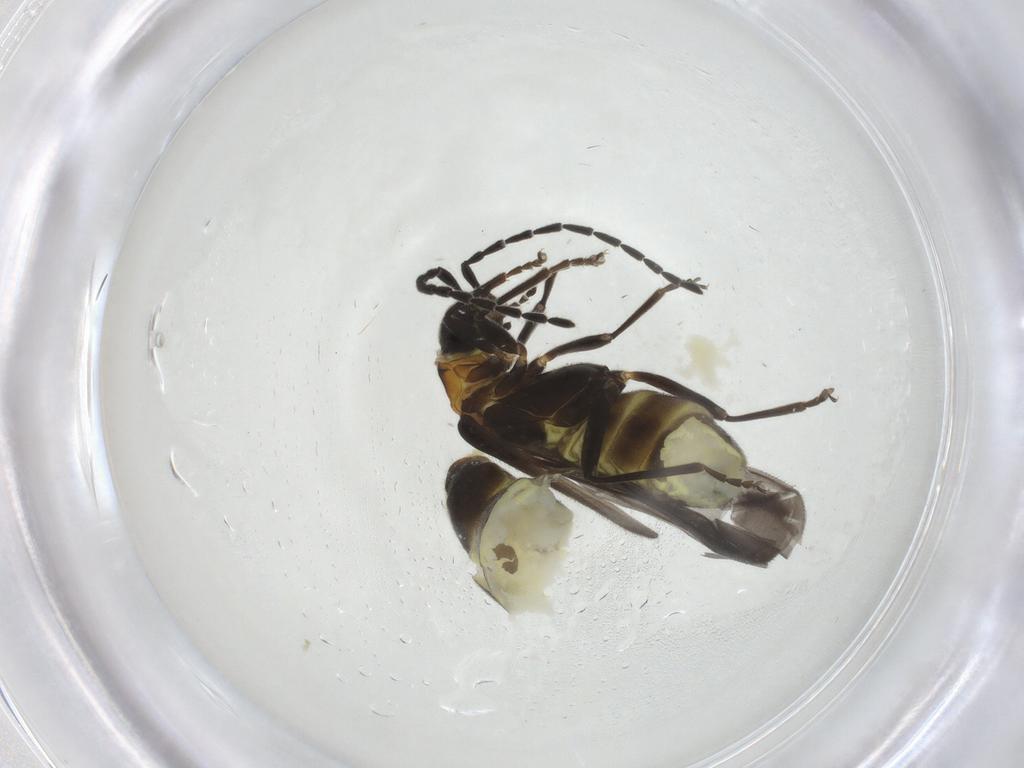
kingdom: Animalia
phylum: Arthropoda
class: Insecta
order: Coleoptera
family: Cantharidae
